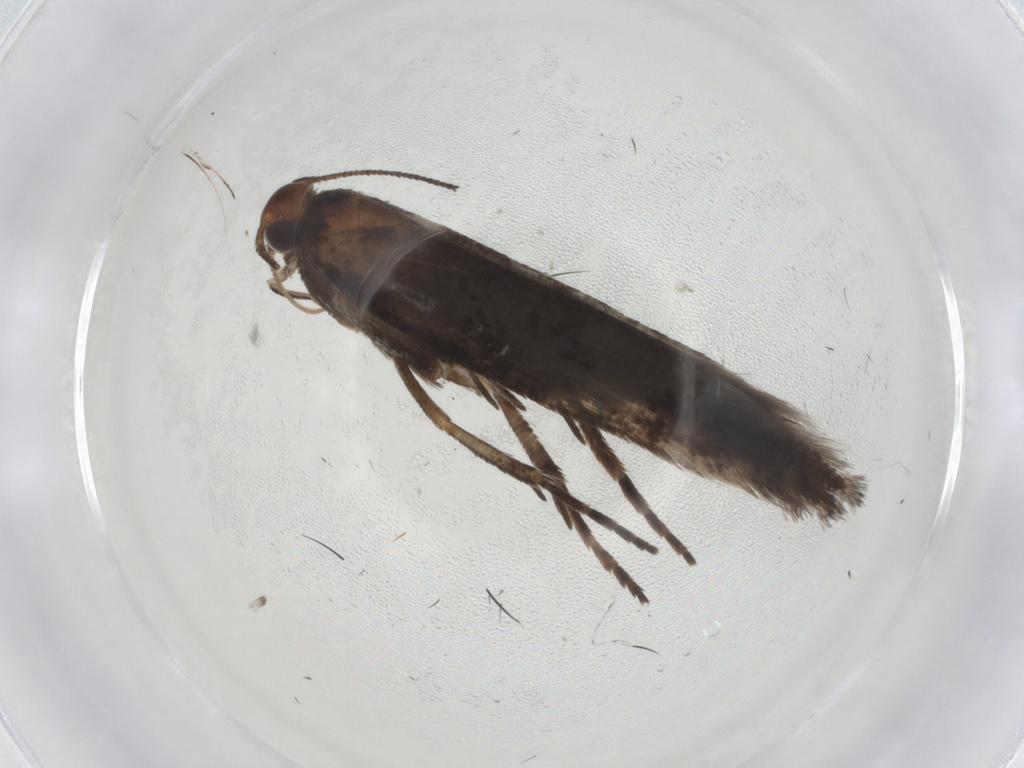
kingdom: Animalia
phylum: Arthropoda
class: Insecta
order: Lepidoptera
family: Gelechiidae
